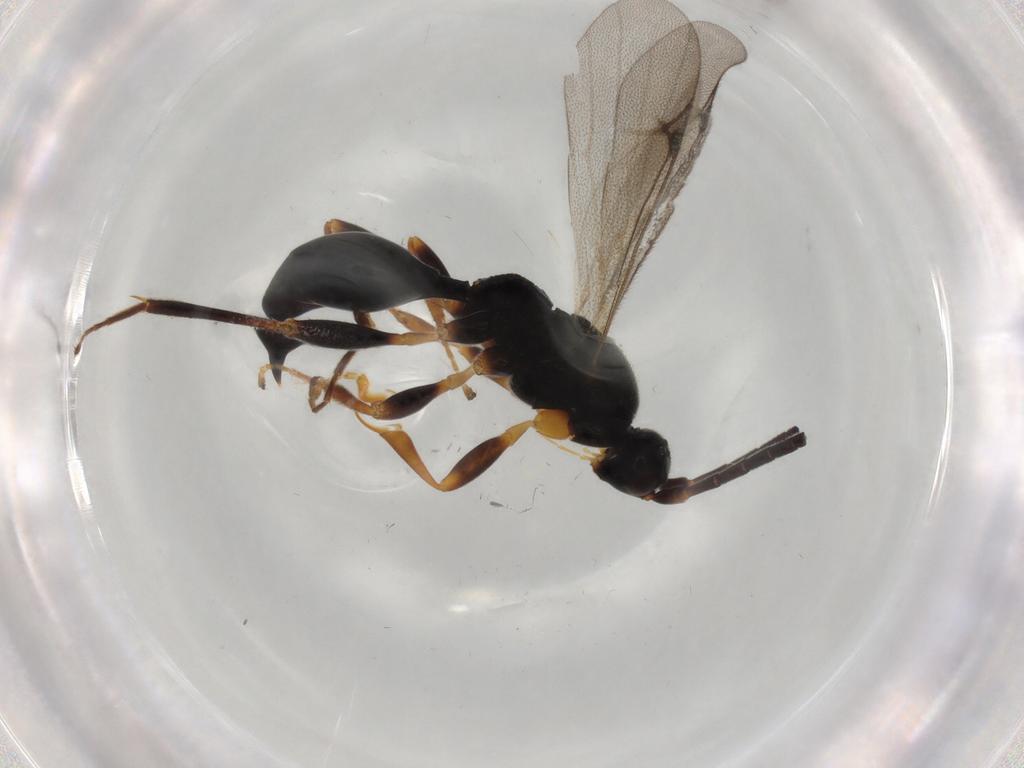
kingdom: Animalia
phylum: Arthropoda
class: Insecta
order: Hymenoptera
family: Proctotrupidae
